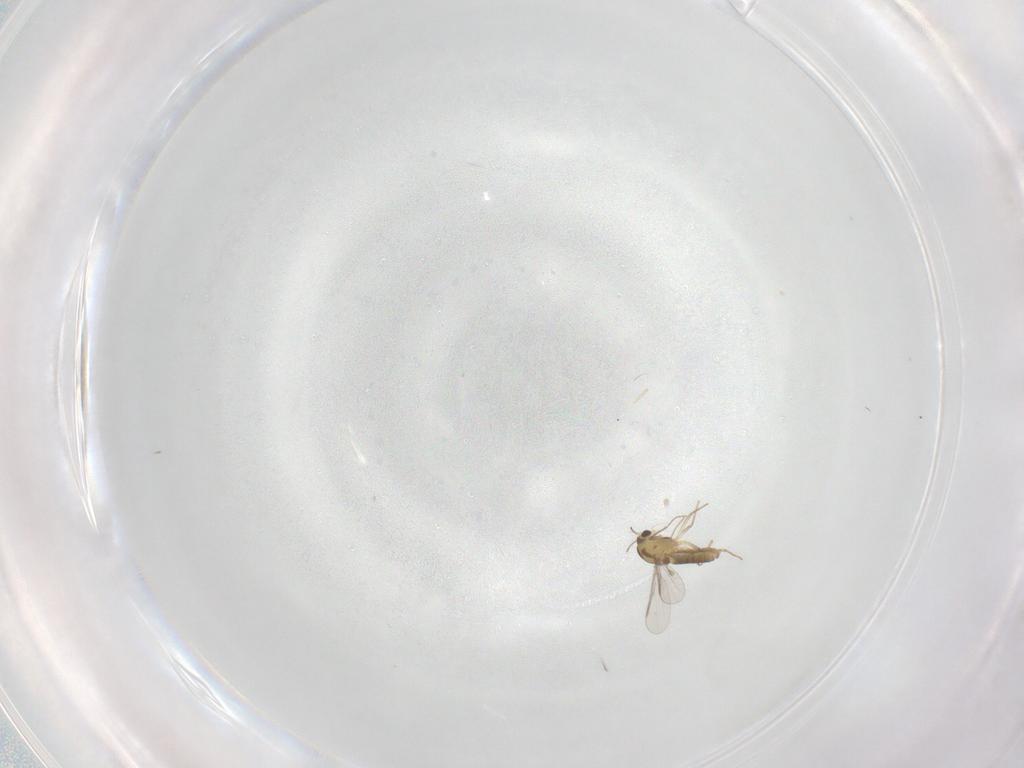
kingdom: Animalia
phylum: Arthropoda
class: Insecta
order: Diptera
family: Chironomidae
